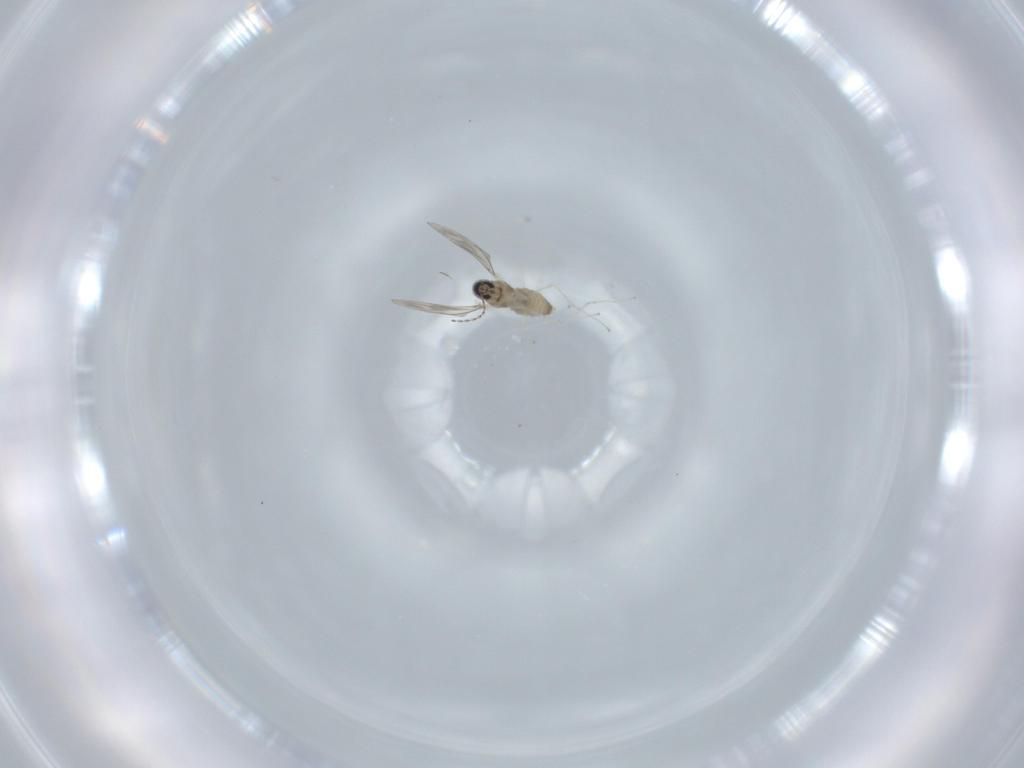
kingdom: Animalia
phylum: Arthropoda
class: Insecta
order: Diptera
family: Cecidomyiidae
